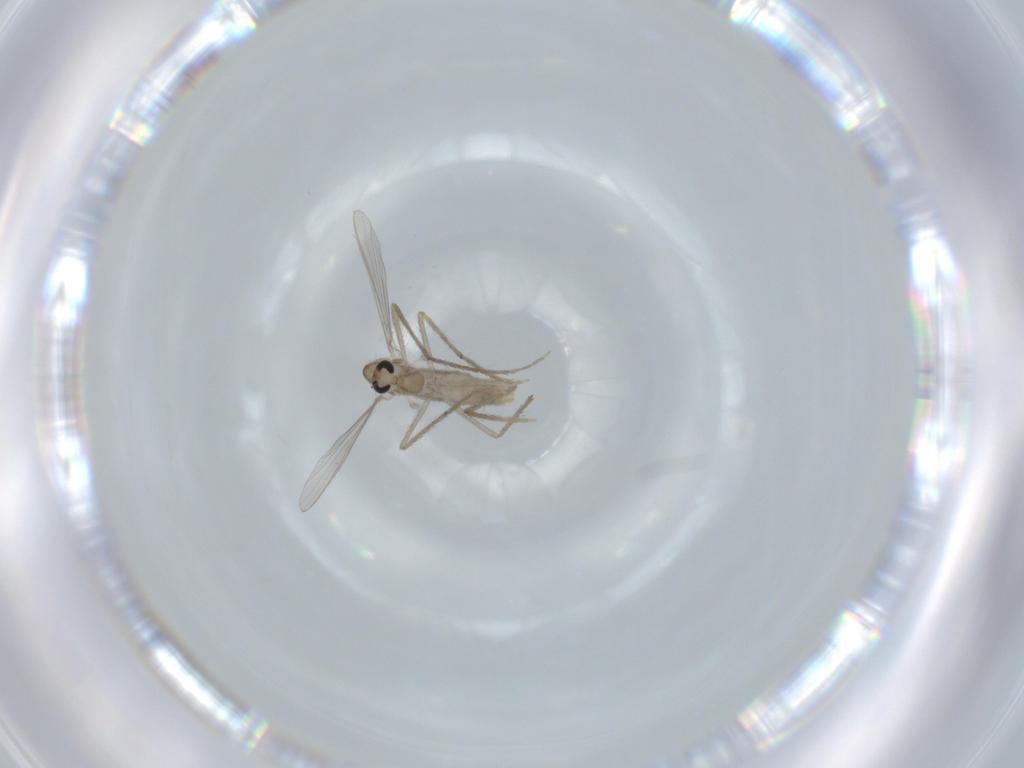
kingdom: Animalia
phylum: Arthropoda
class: Insecta
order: Diptera
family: Chironomidae
